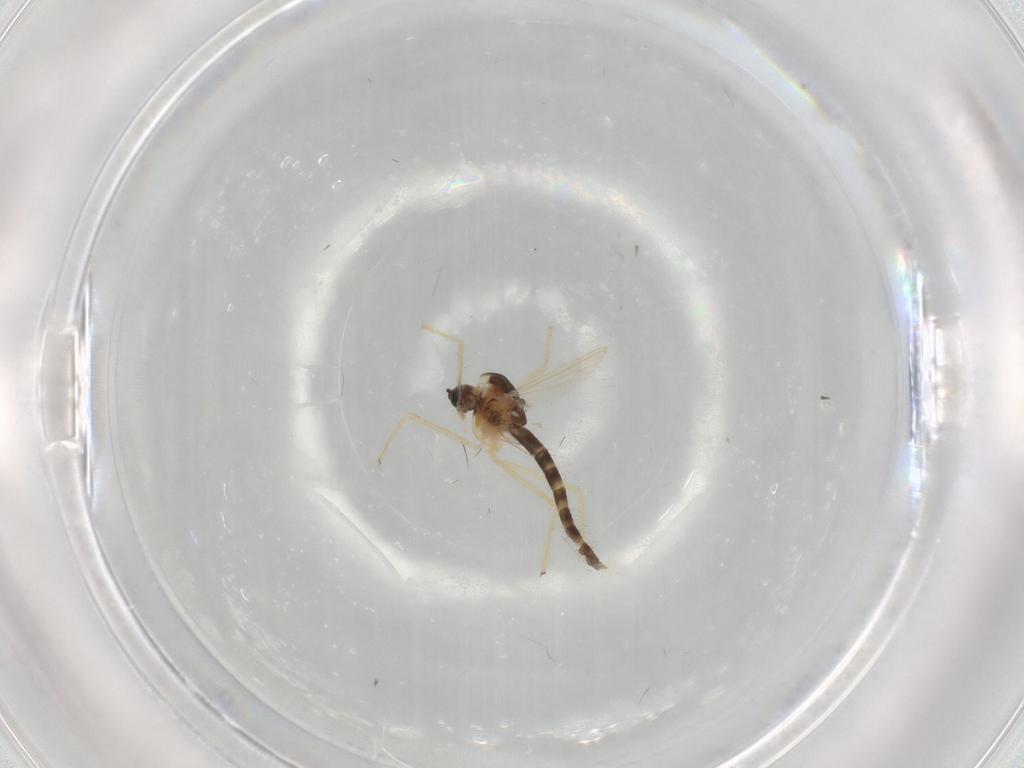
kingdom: Animalia
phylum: Arthropoda
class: Insecta
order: Diptera
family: Chironomidae
